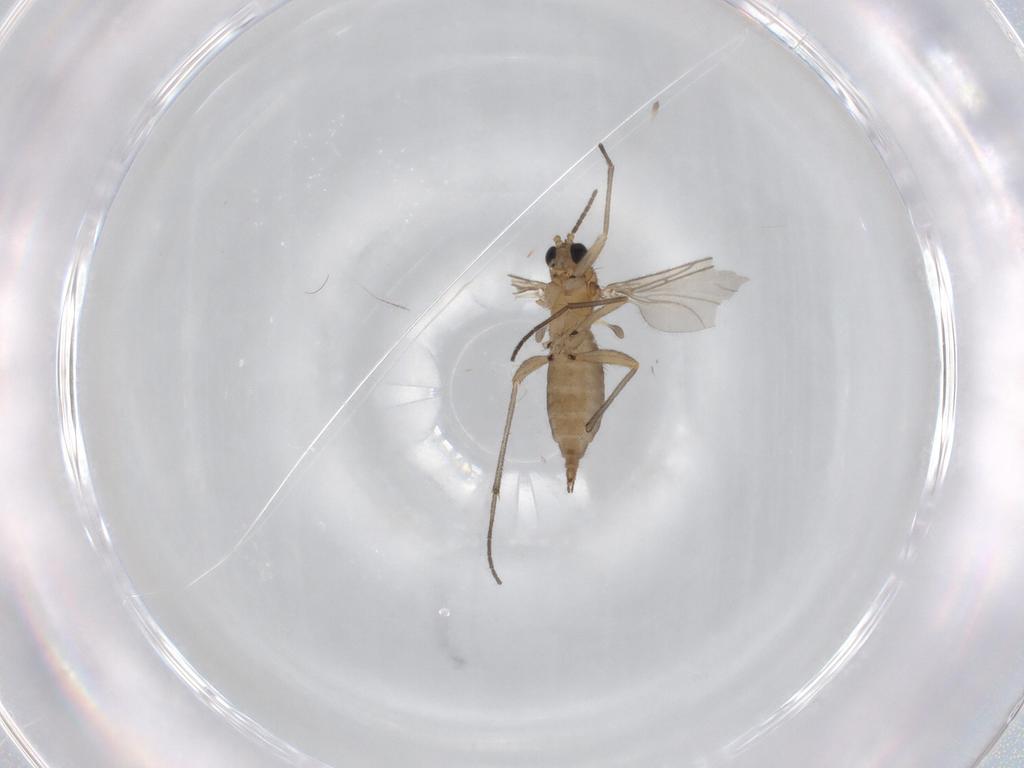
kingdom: Animalia
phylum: Arthropoda
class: Insecta
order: Diptera
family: Sciaridae
